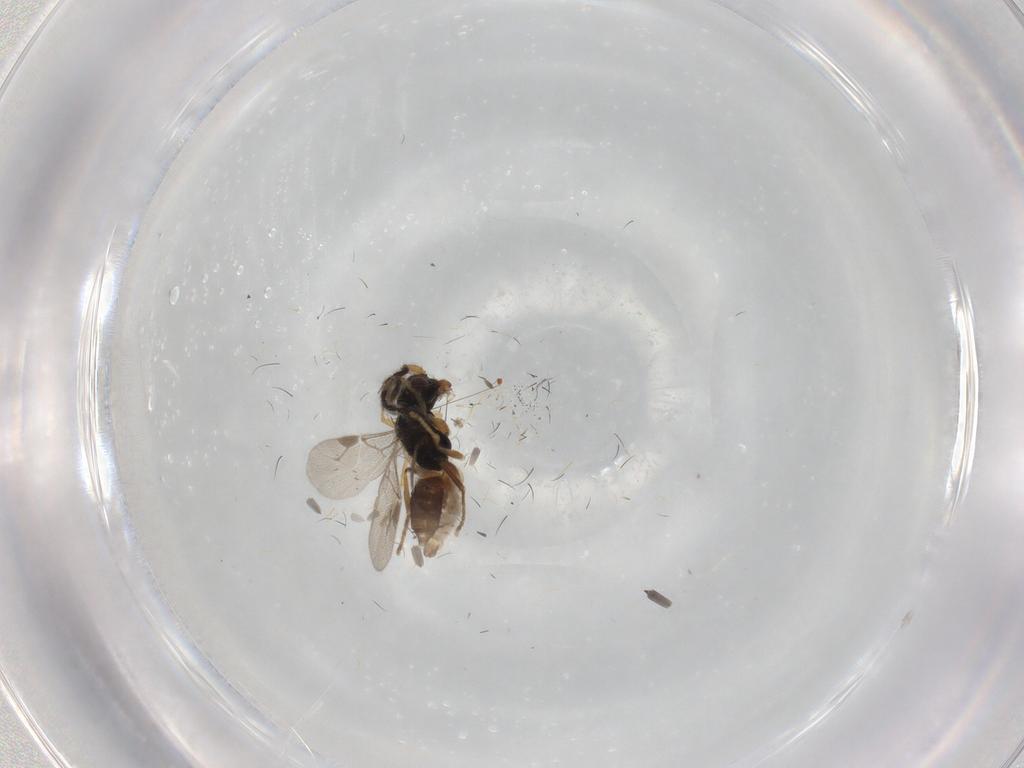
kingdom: Animalia
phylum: Arthropoda
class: Insecta
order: Hymenoptera
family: Dryinidae
